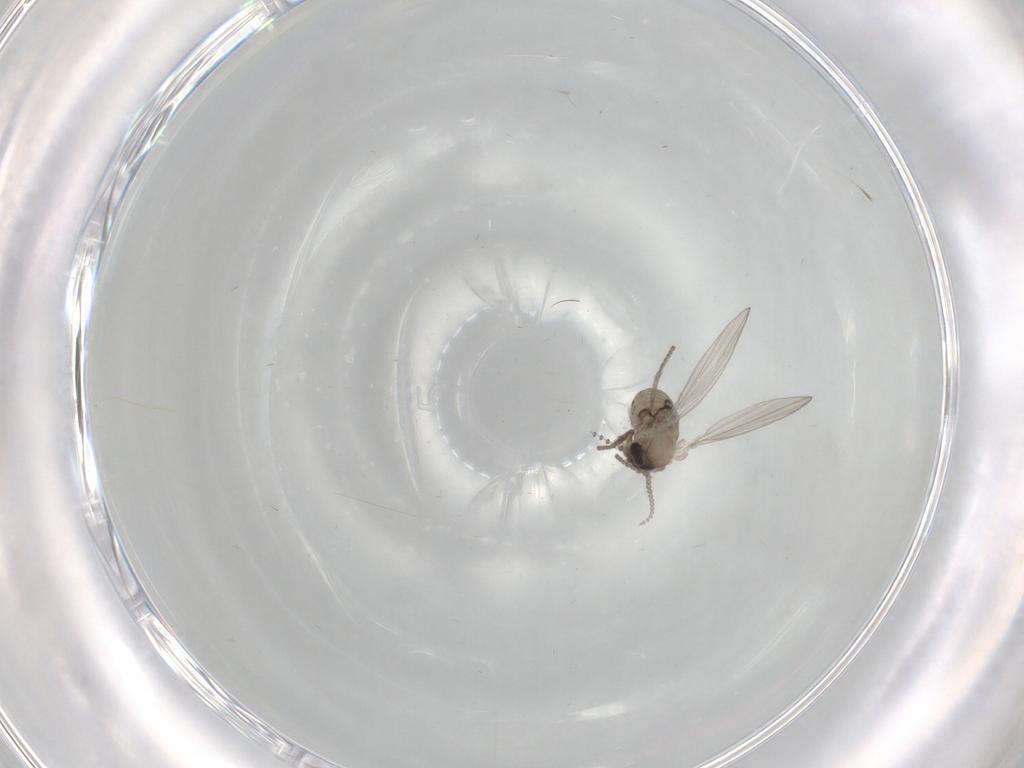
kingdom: Animalia
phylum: Arthropoda
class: Insecta
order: Diptera
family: Psychodidae
